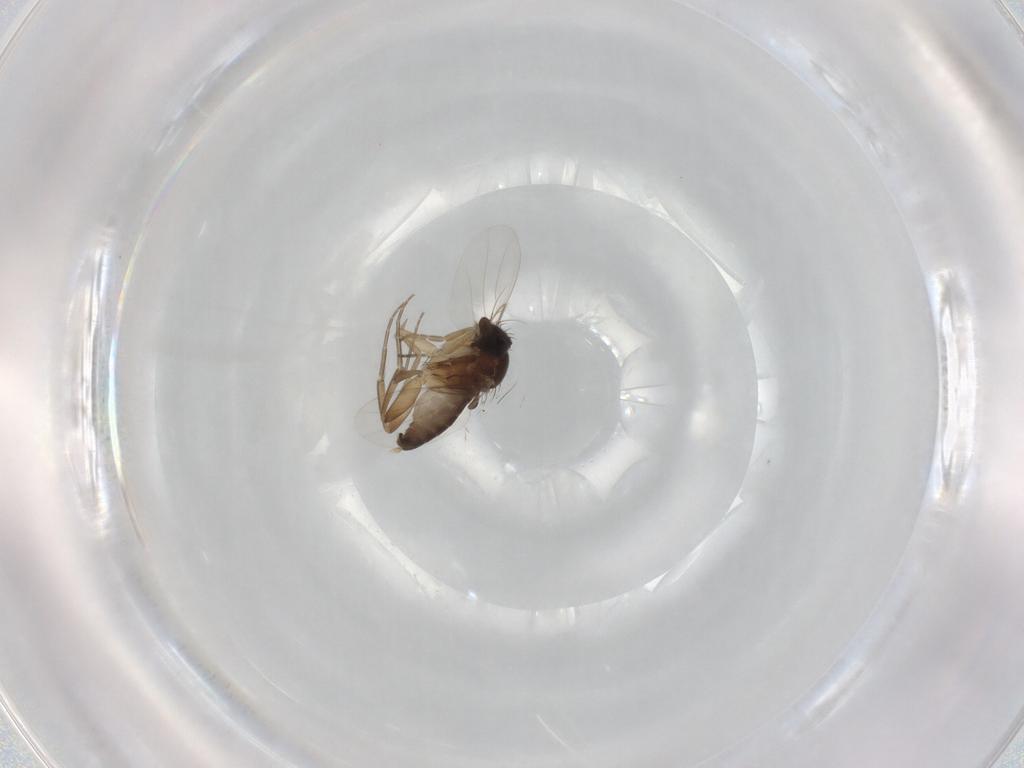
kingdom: Animalia
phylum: Arthropoda
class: Insecta
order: Diptera
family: Phoridae
